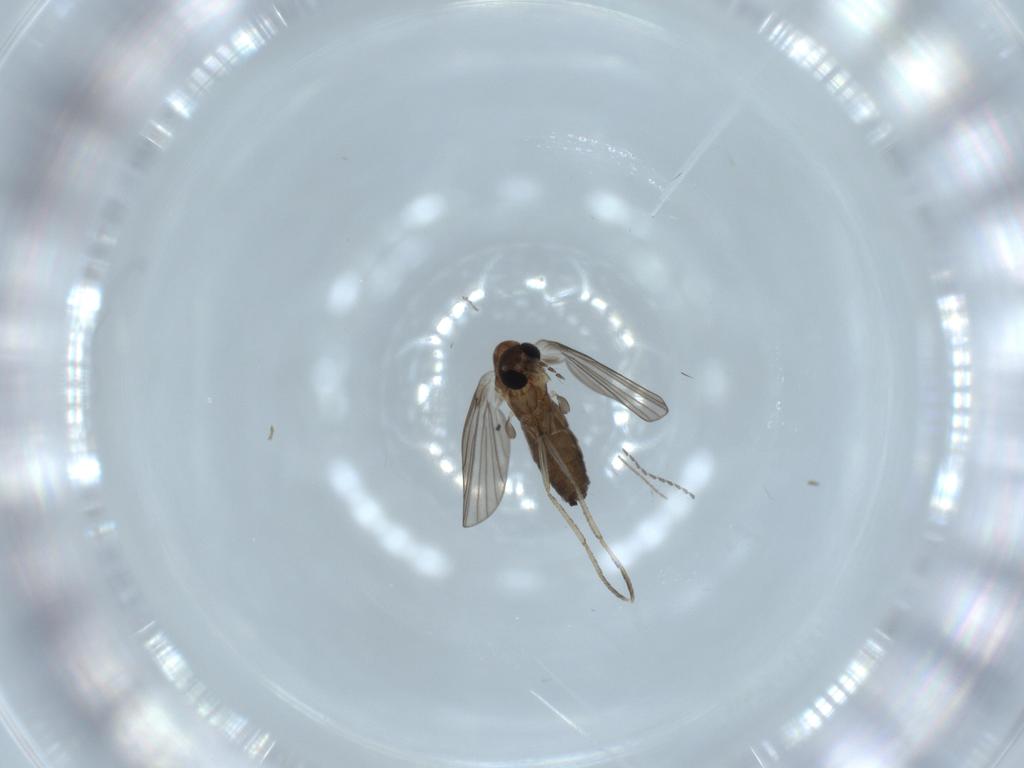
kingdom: Animalia
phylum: Arthropoda
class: Insecta
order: Diptera
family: Psychodidae
